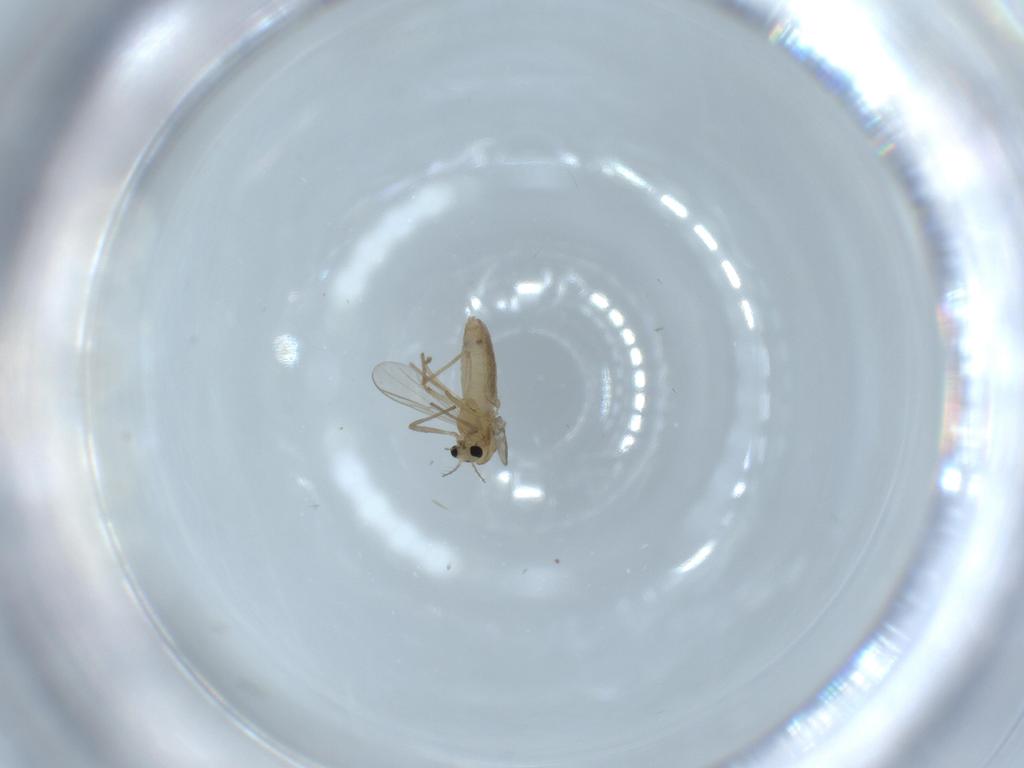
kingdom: Animalia
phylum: Arthropoda
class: Insecta
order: Diptera
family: Chironomidae
